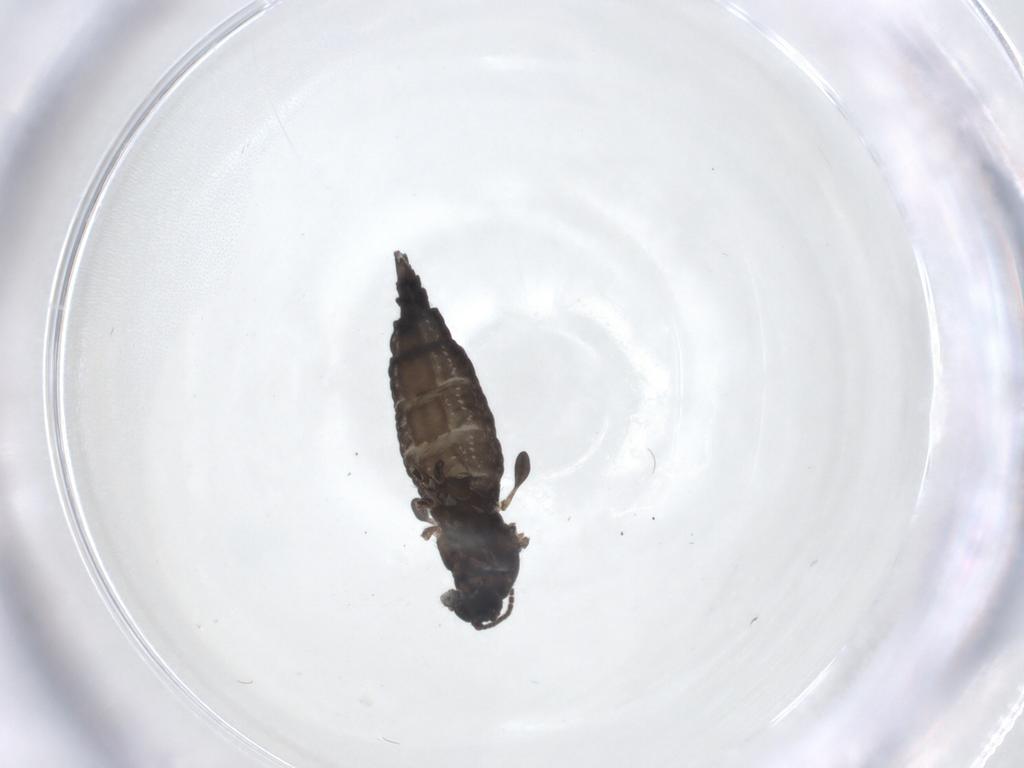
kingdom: Animalia
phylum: Arthropoda
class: Insecta
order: Diptera
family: Sciaridae
